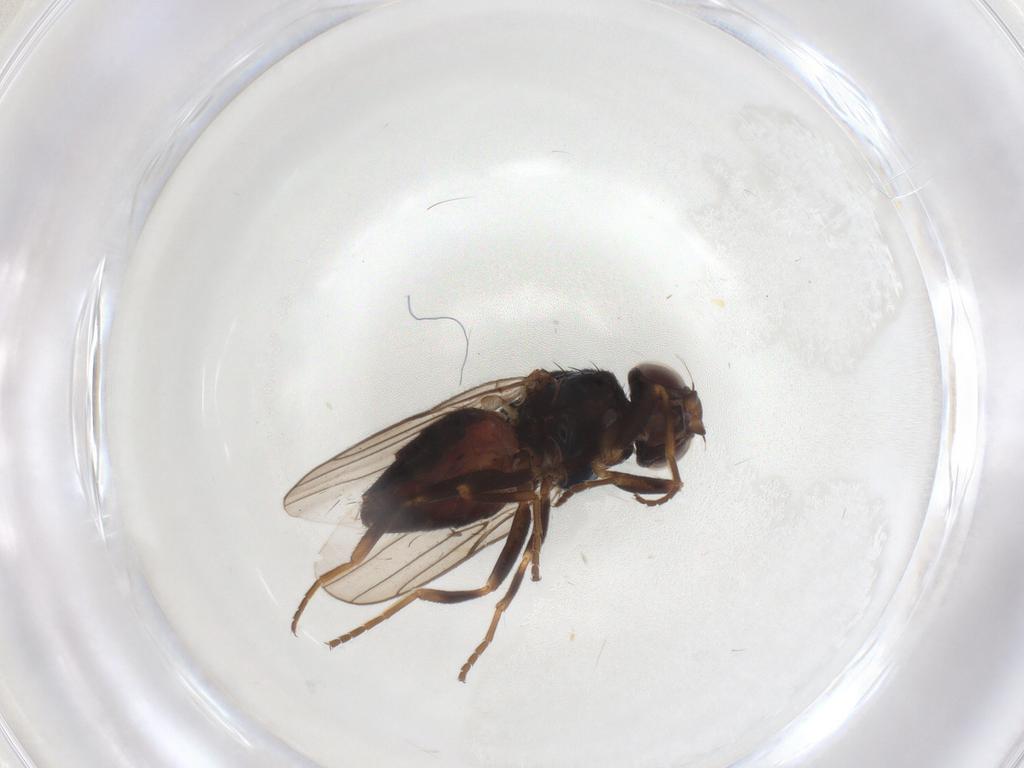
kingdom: Animalia
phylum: Arthropoda
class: Insecta
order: Diptera
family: Chloropidae
